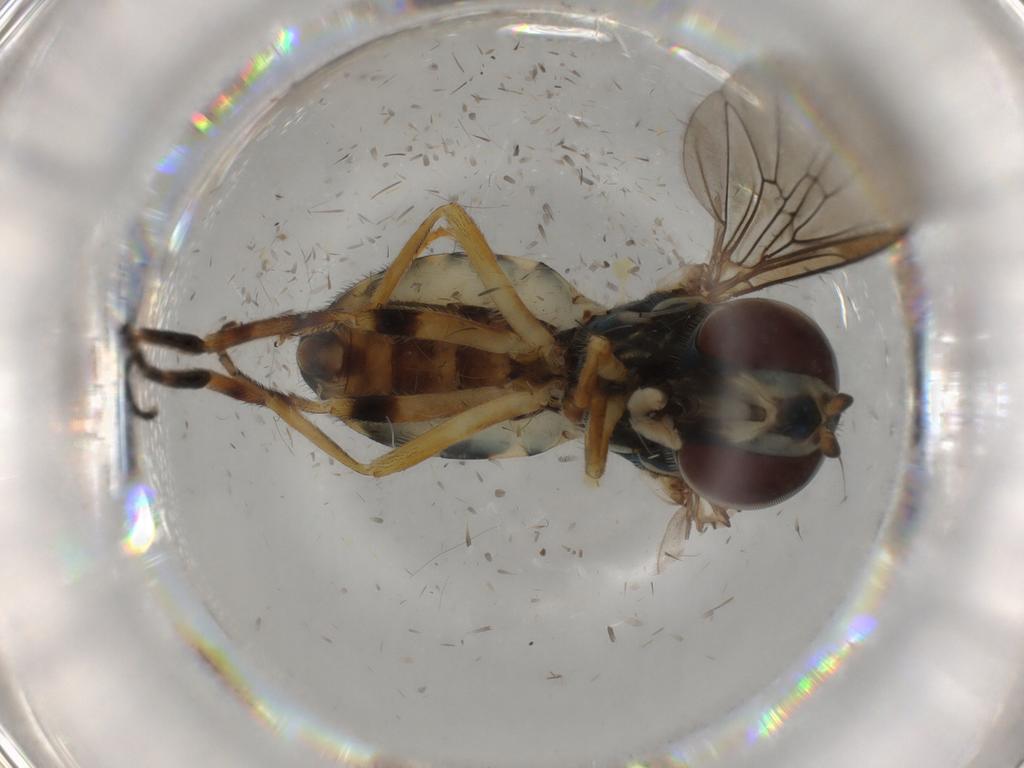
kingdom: Animalia
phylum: Arthropoda
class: Insecta
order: Diptera
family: Syrphidae
